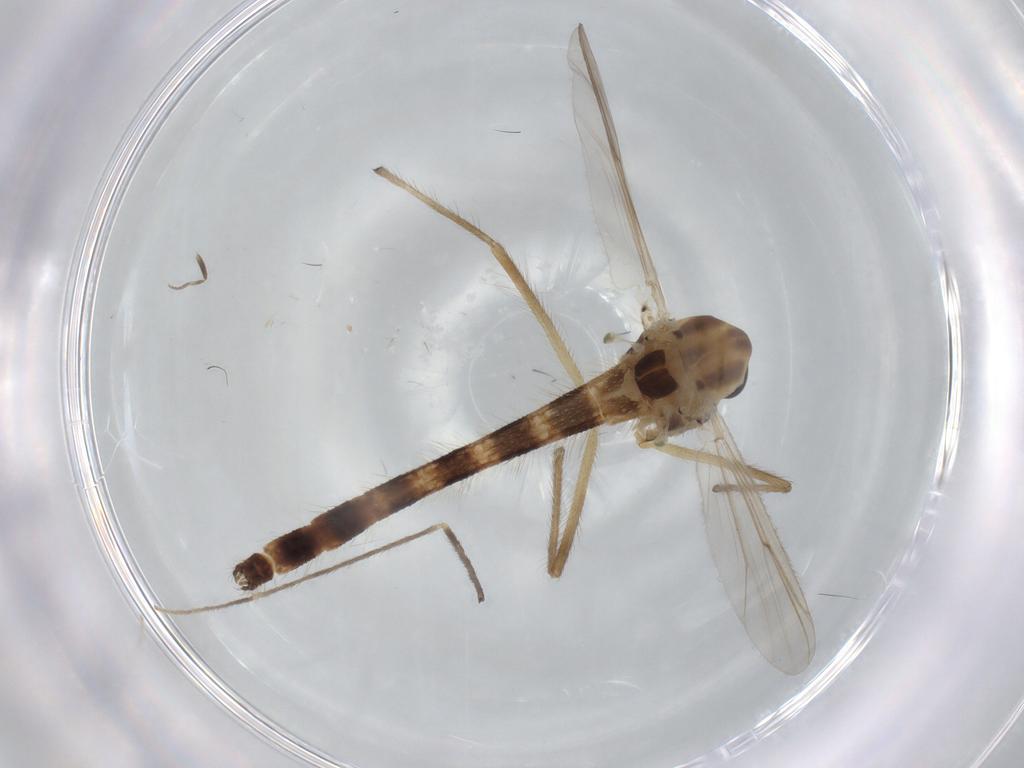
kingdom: Animalia
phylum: Arthropoda
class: Insecta
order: Diptera
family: Chironomidae
